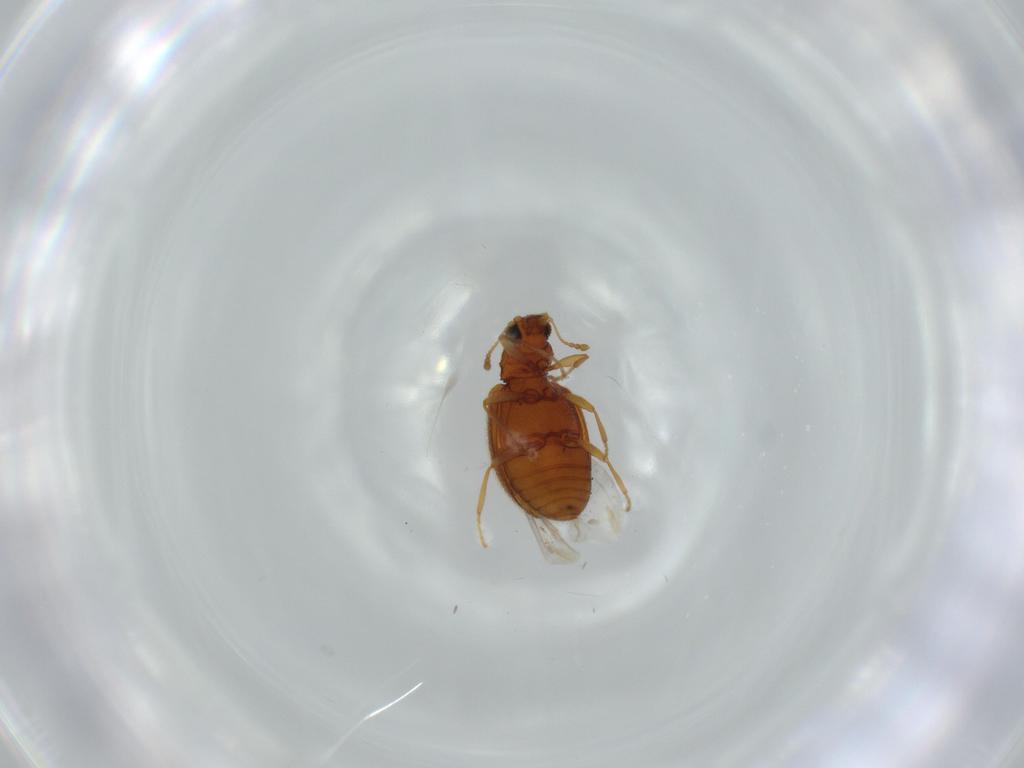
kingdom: Animalia
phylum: Arthropoda
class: Insecta
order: Coleoptera
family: Latridiidae
